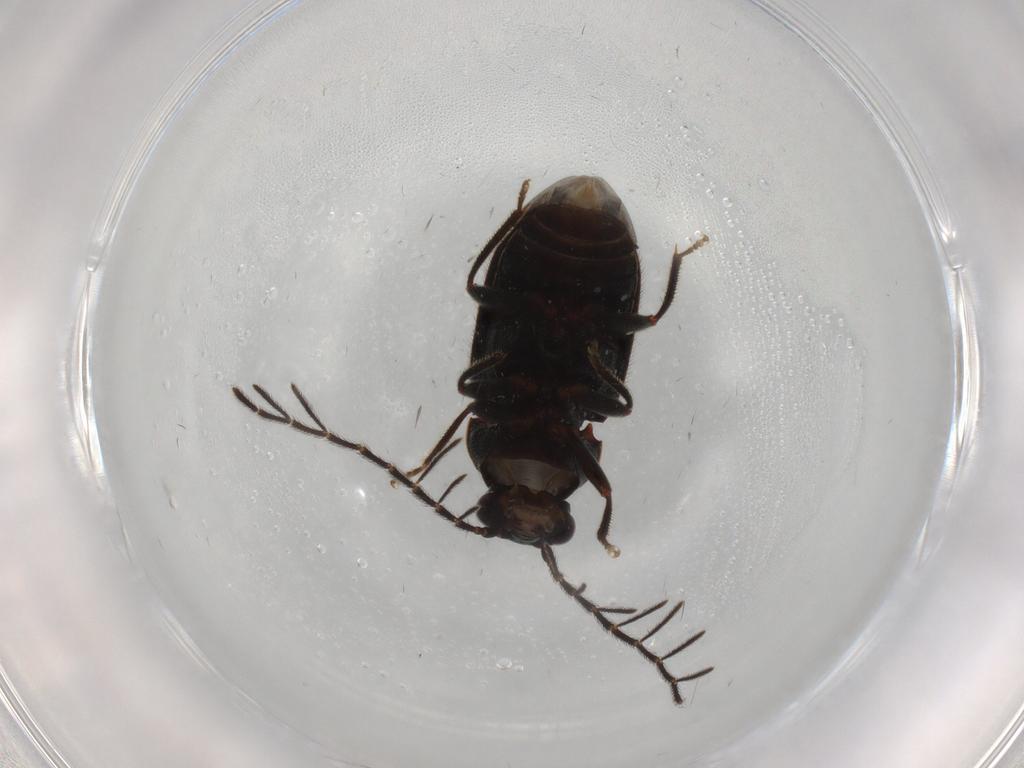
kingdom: Animalia
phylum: Arthropoda
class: Insecta
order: Coleoptera
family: Ptilodactylidae
